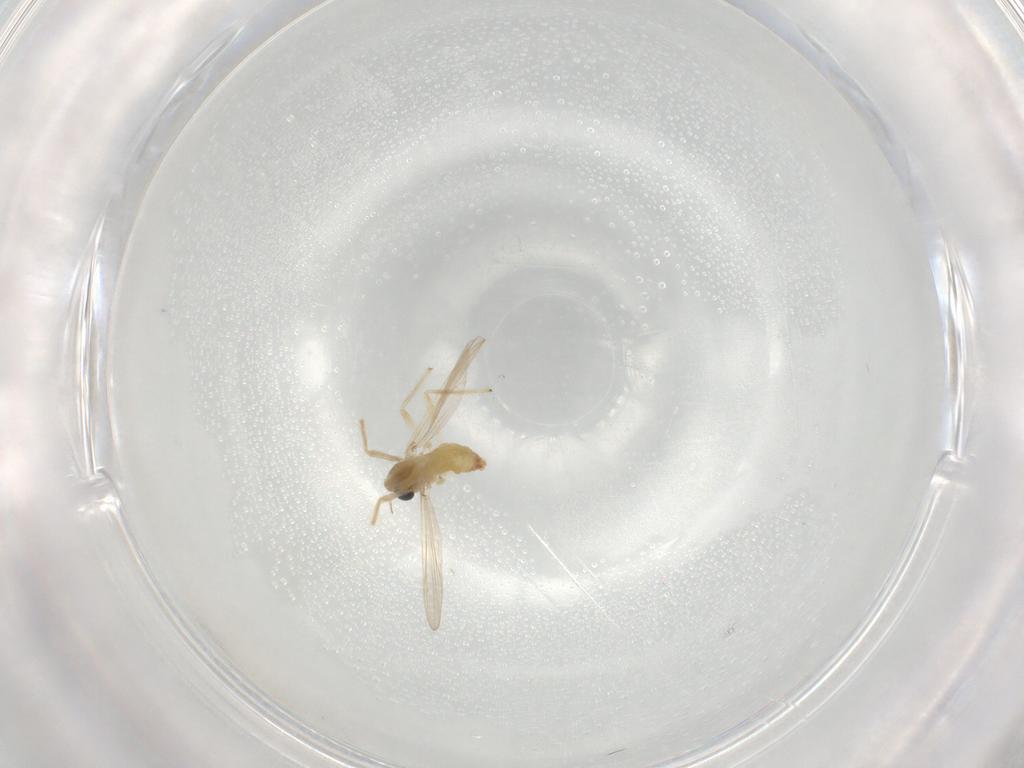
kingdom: Animalia
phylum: Arthropoda
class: Insecta
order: Diptera
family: Chironomidae
